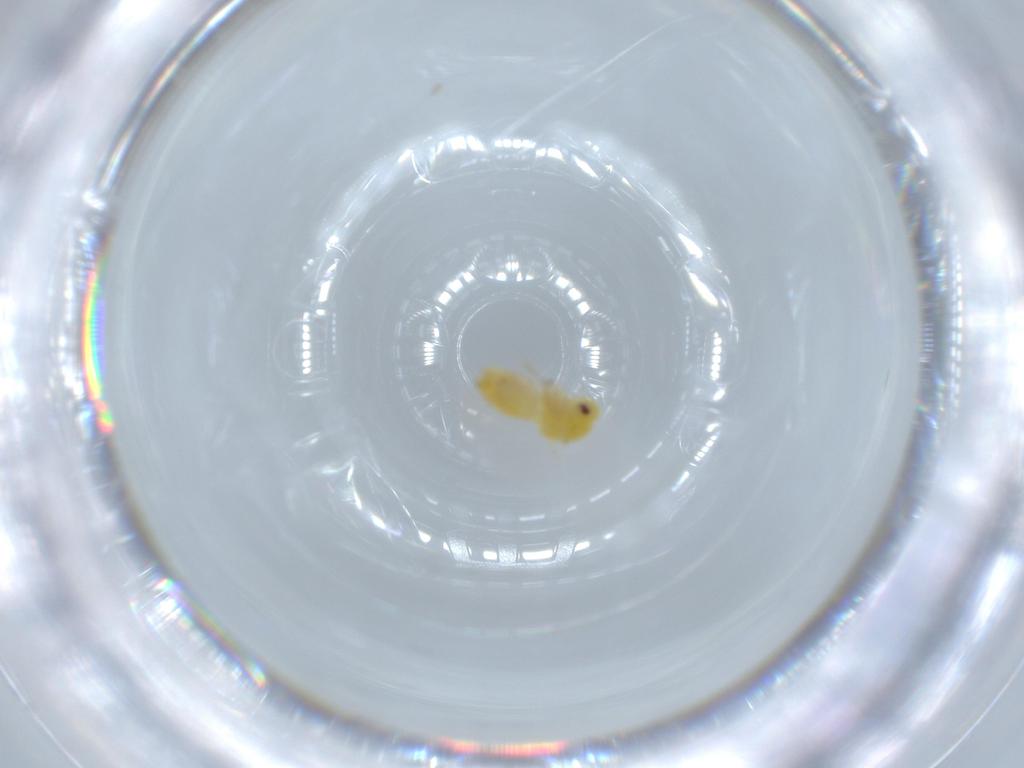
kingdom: Animalia
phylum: Arthropoda
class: Insecta
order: Hemiptera
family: Aleyrodidae
